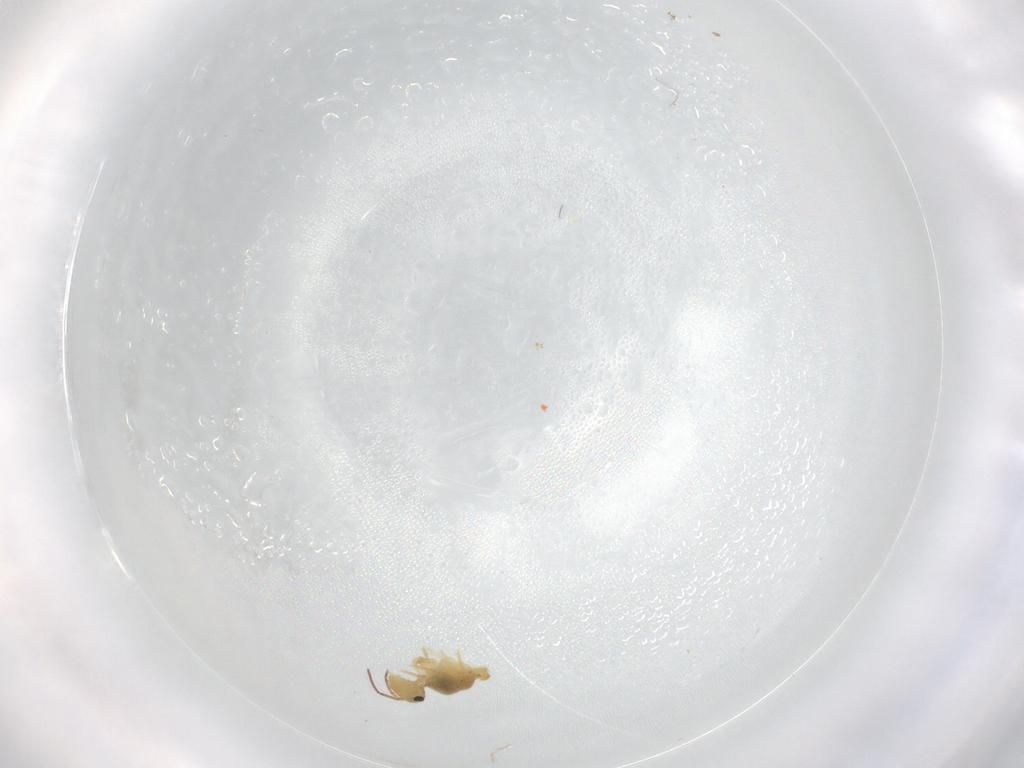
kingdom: Animalia
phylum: Arthropoda
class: Collembola
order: Symphypleona
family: Bourletiellidae
